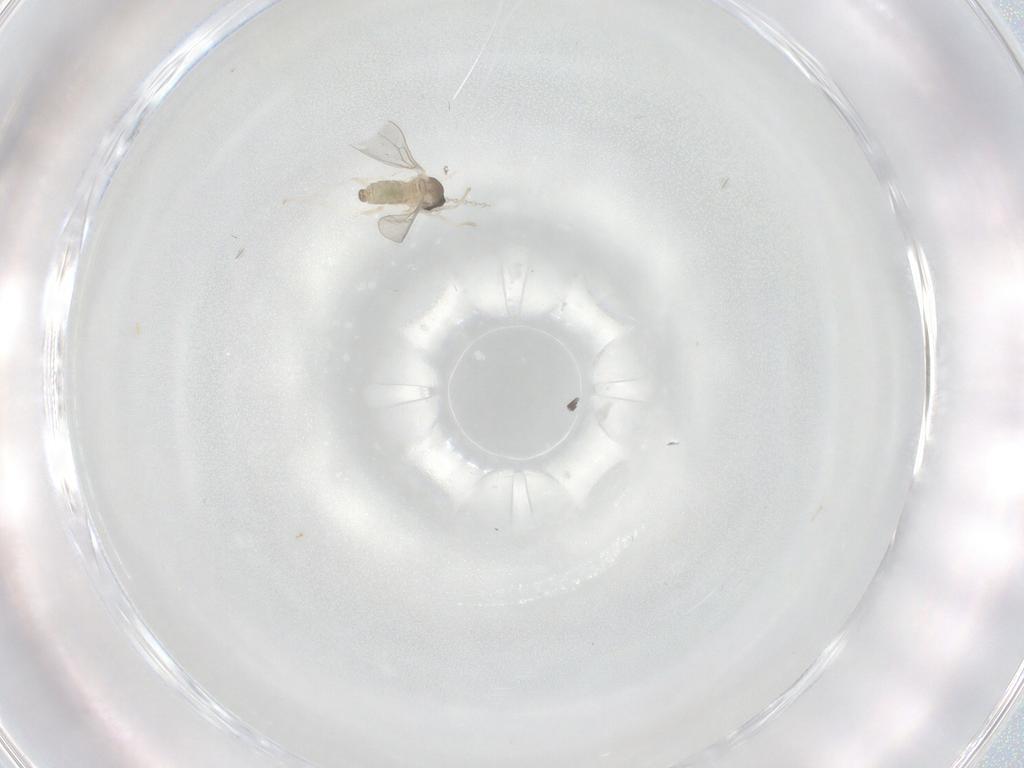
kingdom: Animalia
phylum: Arthropoda
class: Insecta
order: Diptera
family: Cecidomyiidae
